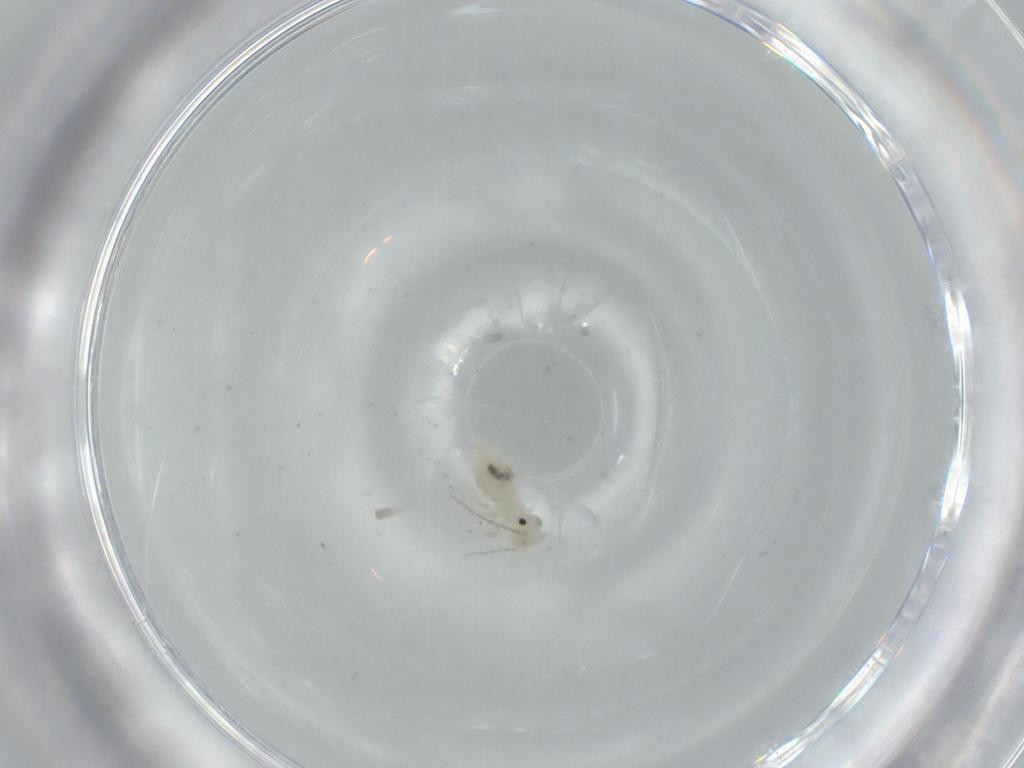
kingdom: Animalia
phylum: Arthropoda
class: Insecta
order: Psocodea
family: Caeciliusidae
